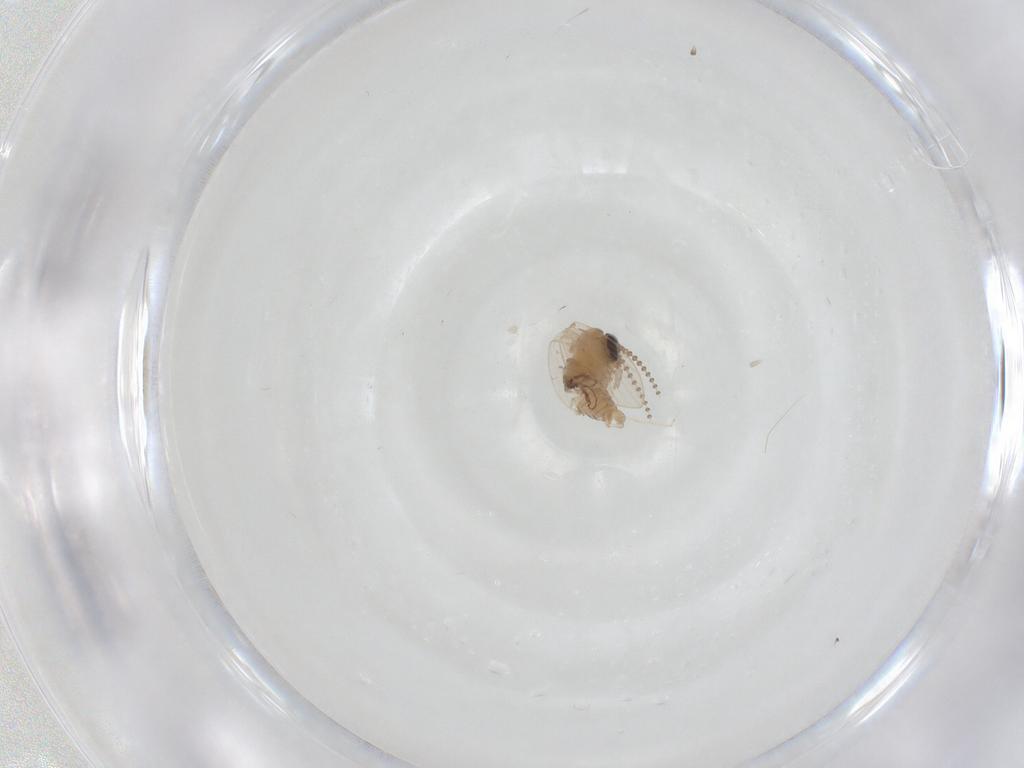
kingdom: Animalia
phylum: Arthropoda
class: Insecta
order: Diptera
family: Psychodidae
